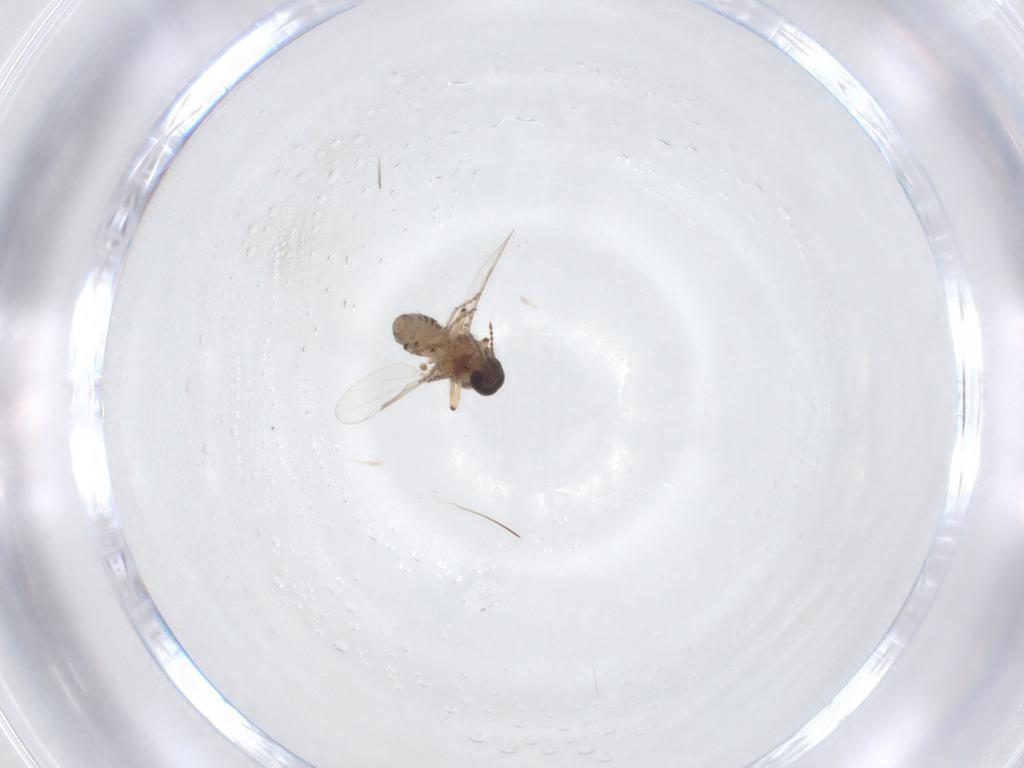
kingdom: Animalia
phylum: Arthropoda
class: Insecta
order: Diptera
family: Ceratopogonidae
